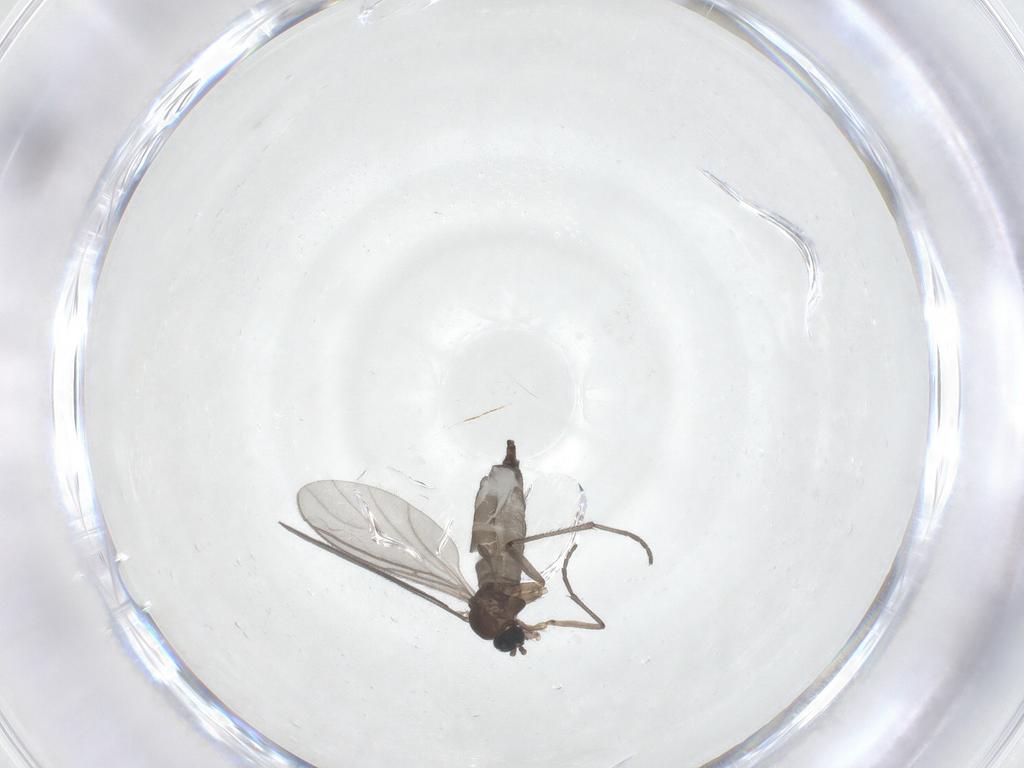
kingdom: Animalia
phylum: Arthropoda
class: Insecta
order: Diptera
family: Sciaridae
